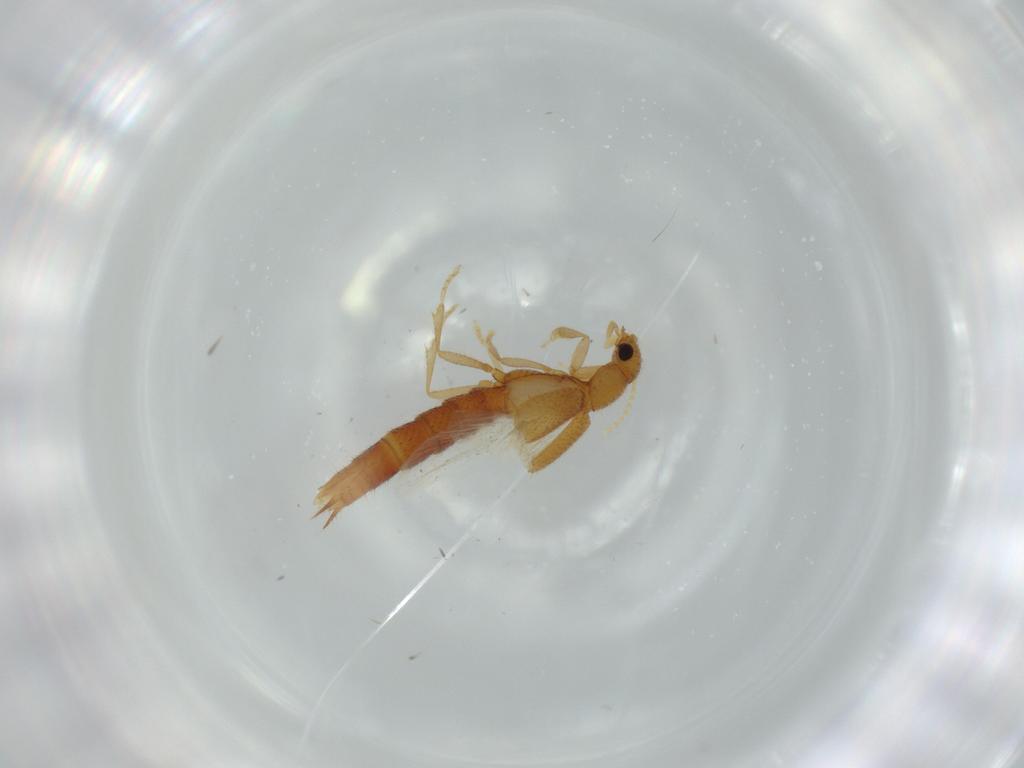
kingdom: Animalia
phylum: Arthropoda
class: Insecta
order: Coleoptera
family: Staphylinidae
